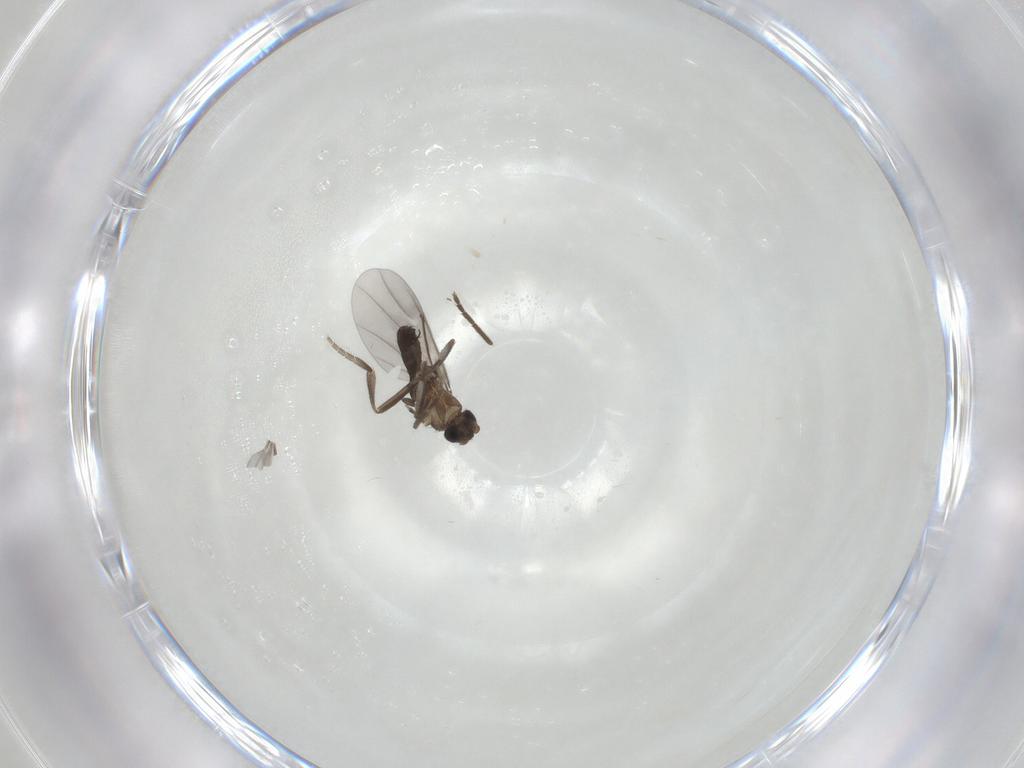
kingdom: Animalia
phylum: Arthropoda
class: Insecta
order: Diptera
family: Phoridae
